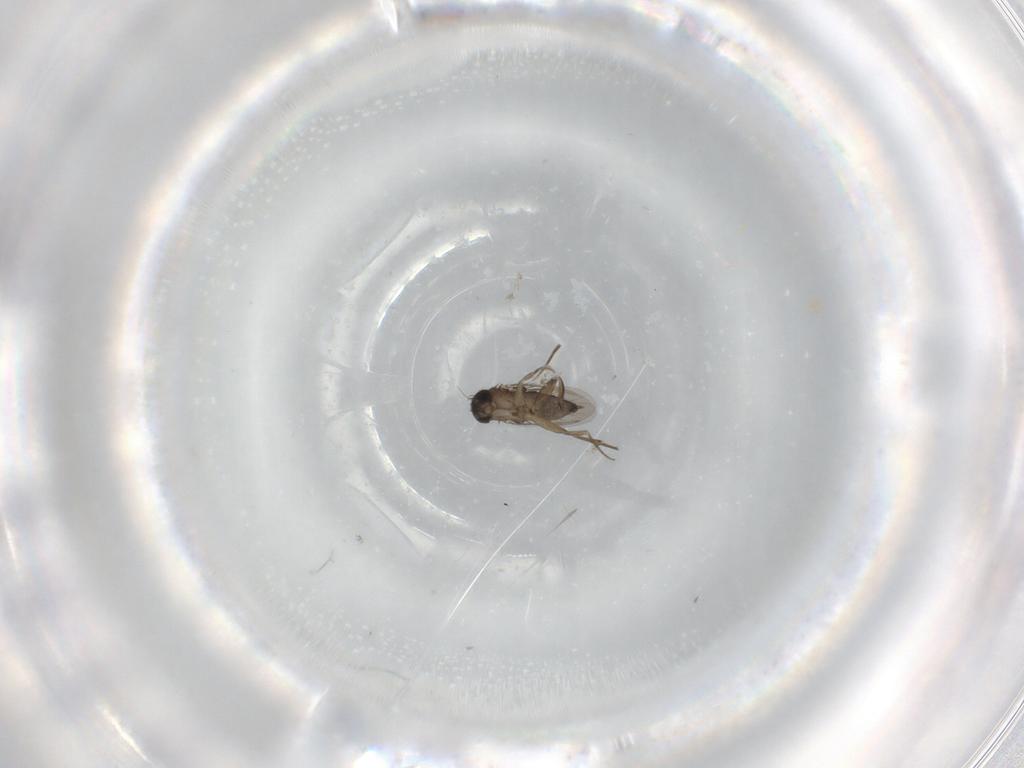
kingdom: Animalia
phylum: Arthropoda
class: Insecta
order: Diptera
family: Phoridae
